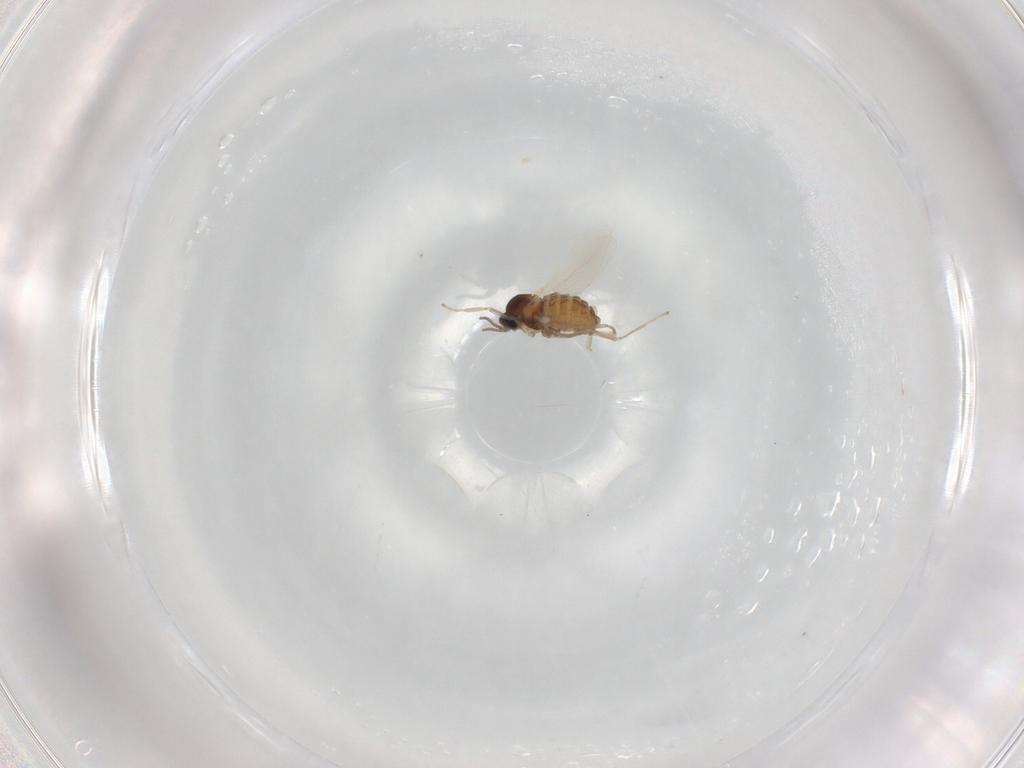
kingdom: Animalia
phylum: Arthropoda
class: Insecta
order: Diptera
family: Cecidomyiidae
